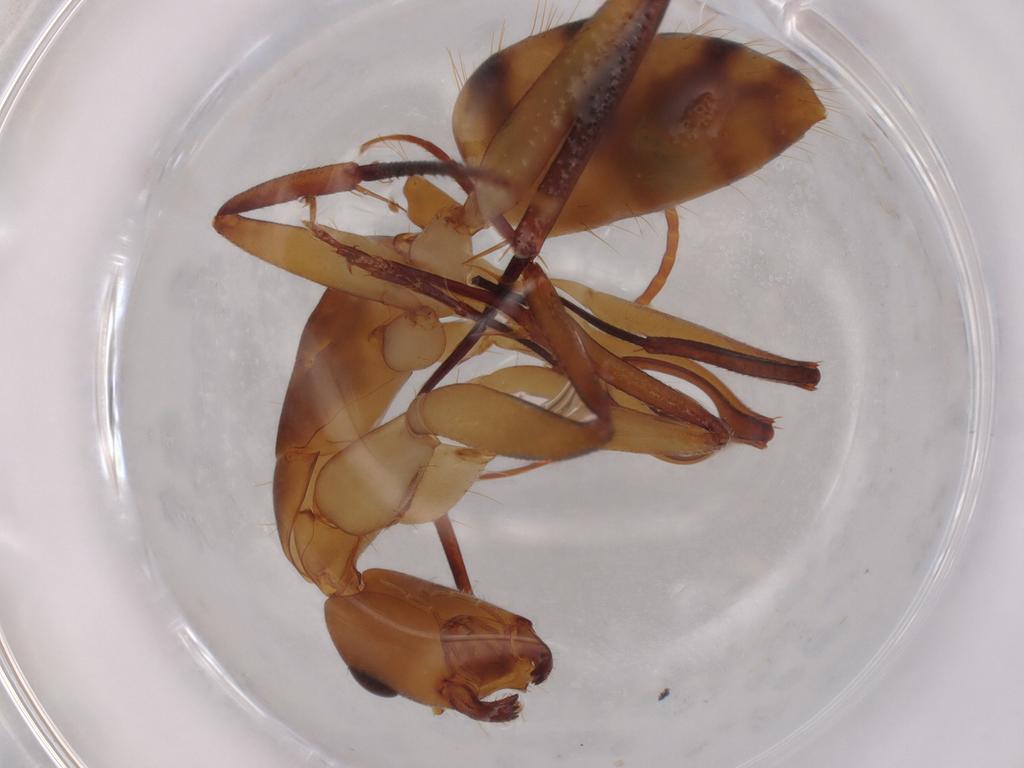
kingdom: Animalia
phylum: Arthropoda
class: Insecta
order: Hymenoptera
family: Formicidae
